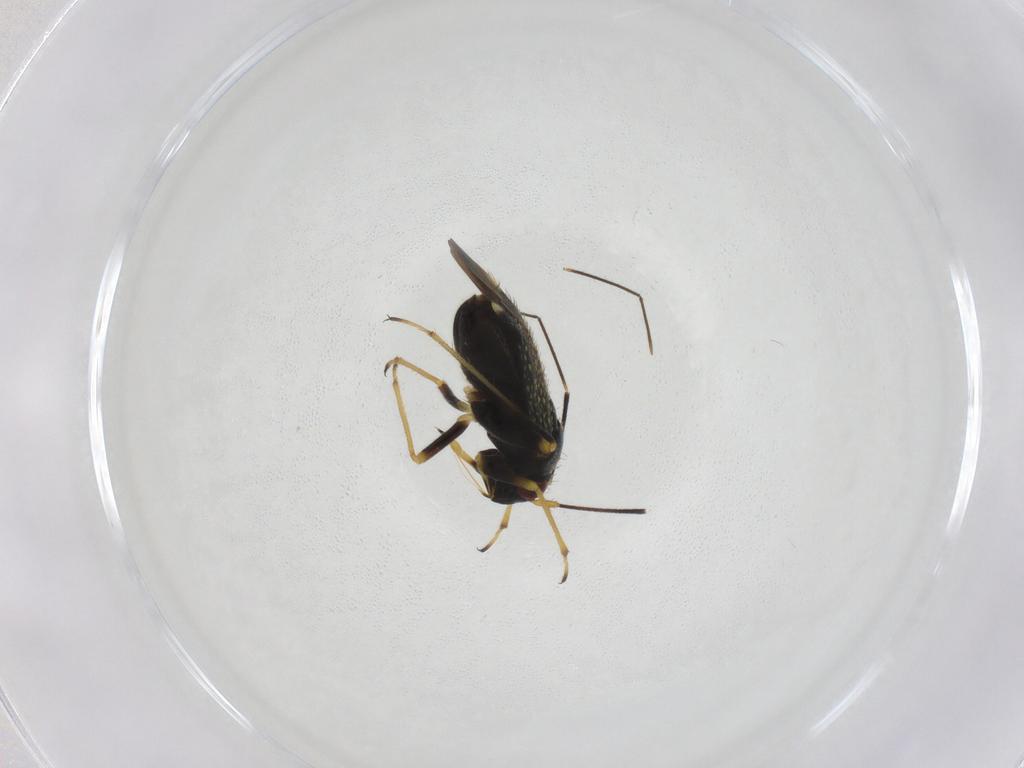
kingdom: Animalia
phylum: Arthropoda
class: Insecta
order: Hemiptera
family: Miridae
